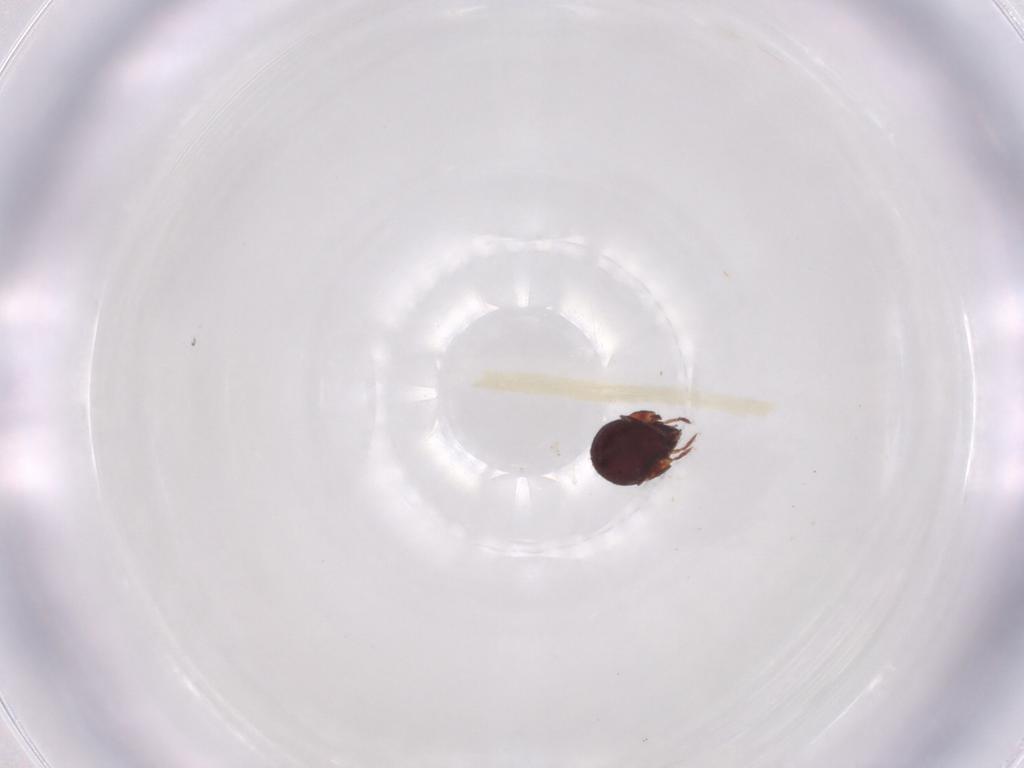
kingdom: Animalia
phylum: Arthropoda
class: Arachnida
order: Sarcoptiformes
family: Humerobatidae
